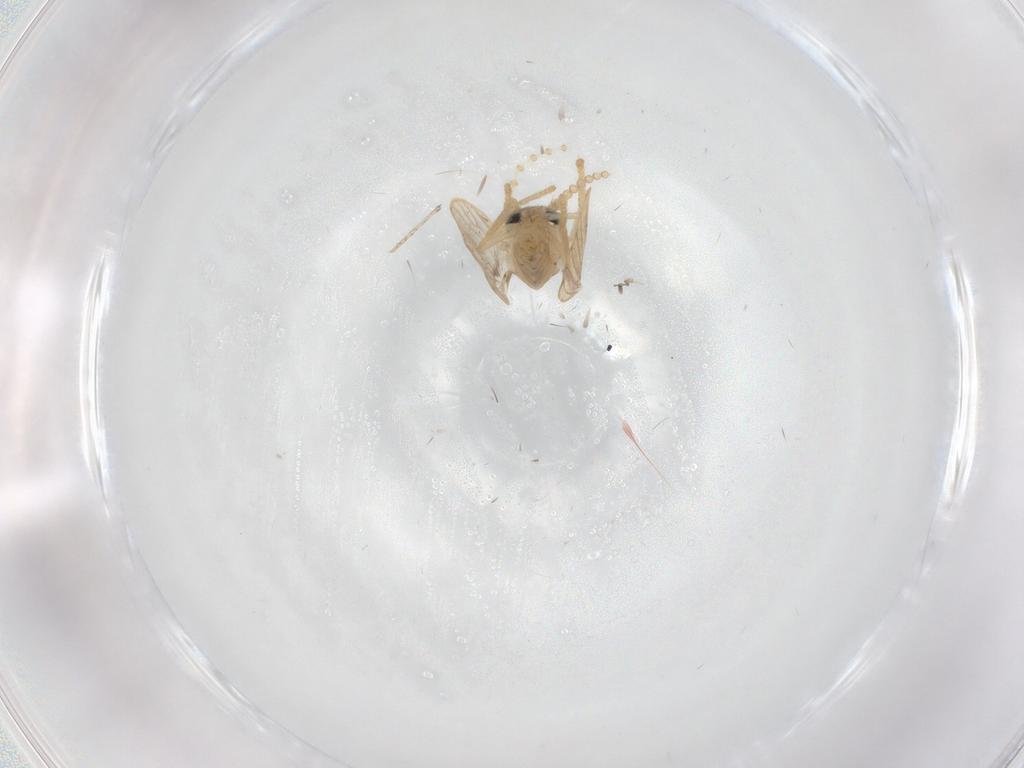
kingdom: Animalia
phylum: Arthropoda
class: Insecta
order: Diptera
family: Psychodidae
